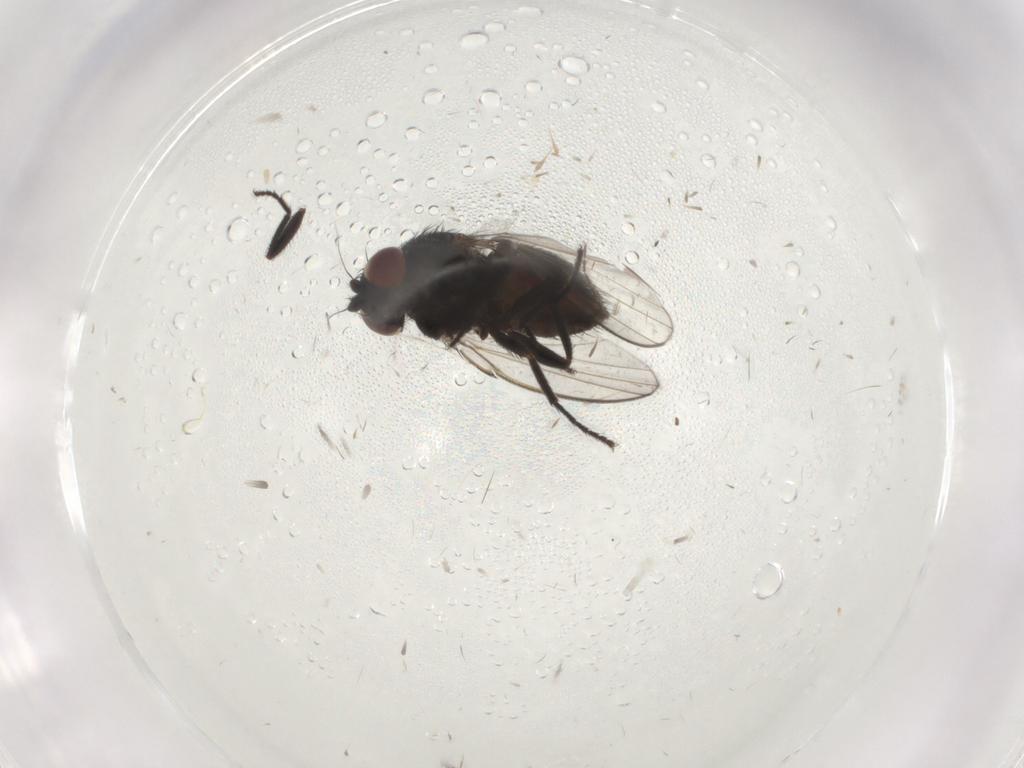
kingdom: Animalia
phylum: Arthropoda
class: Insecta
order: Diptera
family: Milichiidae
